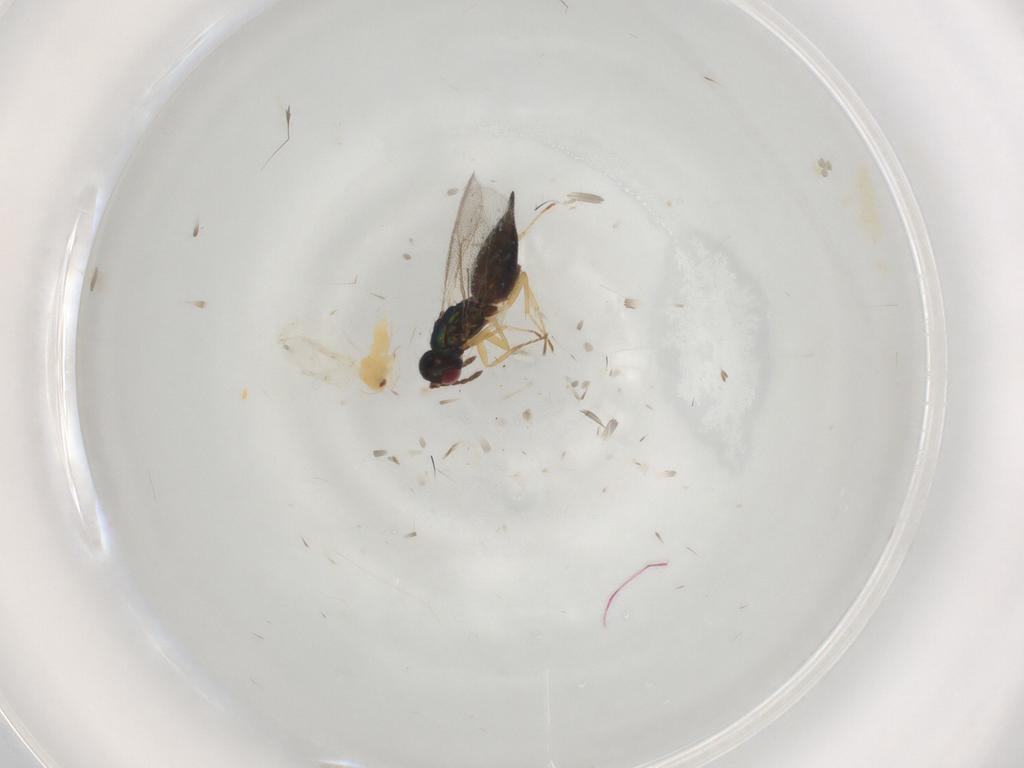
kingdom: Animalia
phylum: Arthropoda
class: Insecta
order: Hymenoptera
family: Eulophidae
